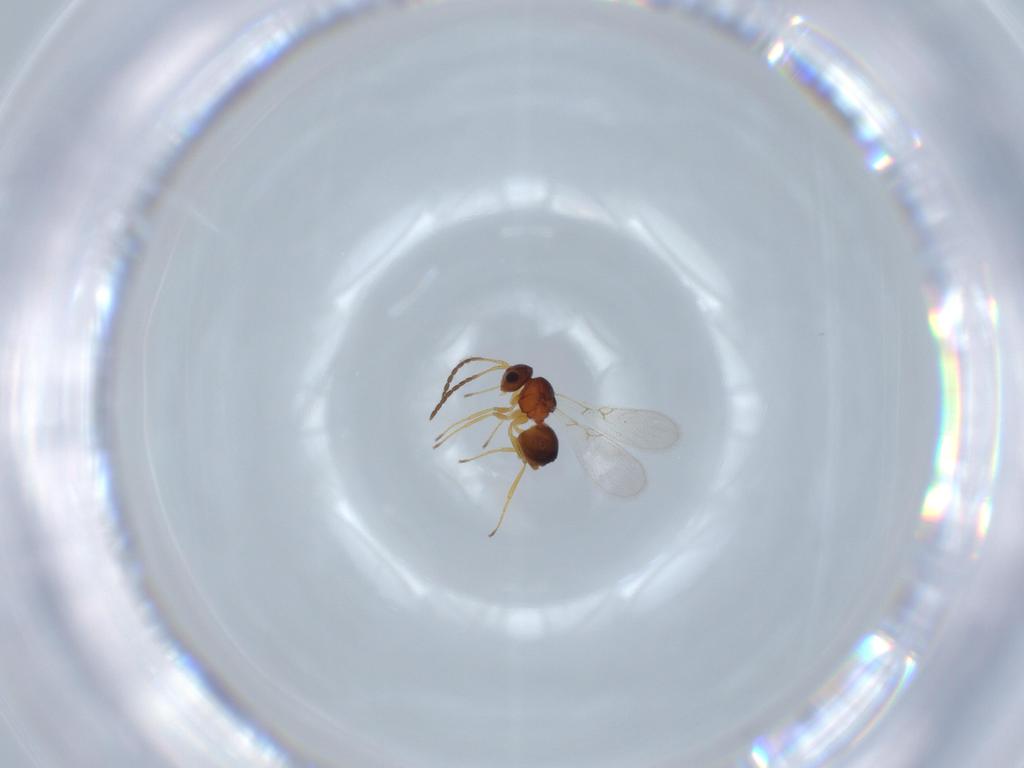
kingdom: Animalia
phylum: Arthropoda
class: Insecta
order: Hymenoptera
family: Figitidae
